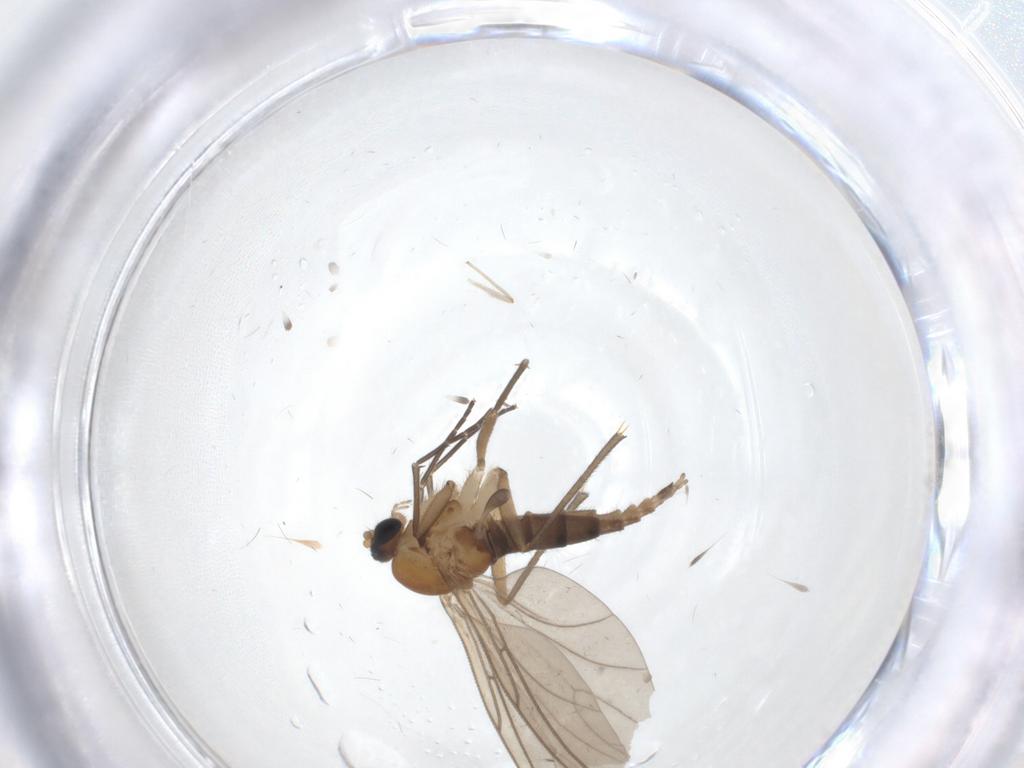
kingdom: Animalia
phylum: Arthropoda
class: Insecta
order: Diptera
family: Sciaridae
